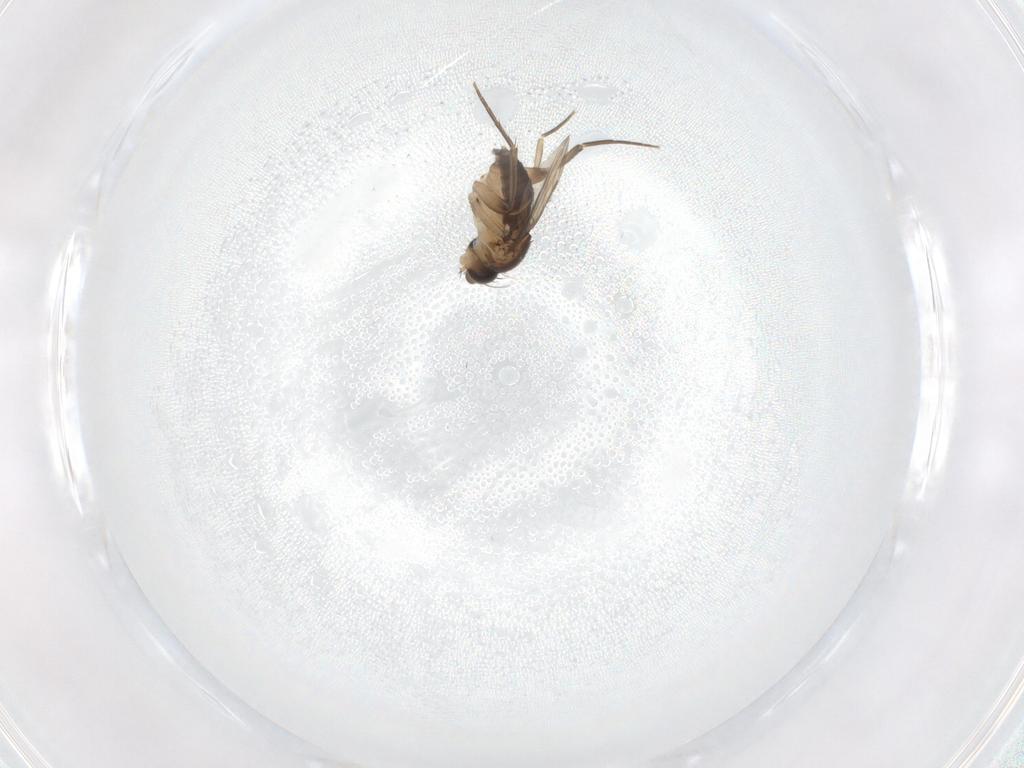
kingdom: Animalia
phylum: Arthropoda
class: Insecta
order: Diptera
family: Phoridae
